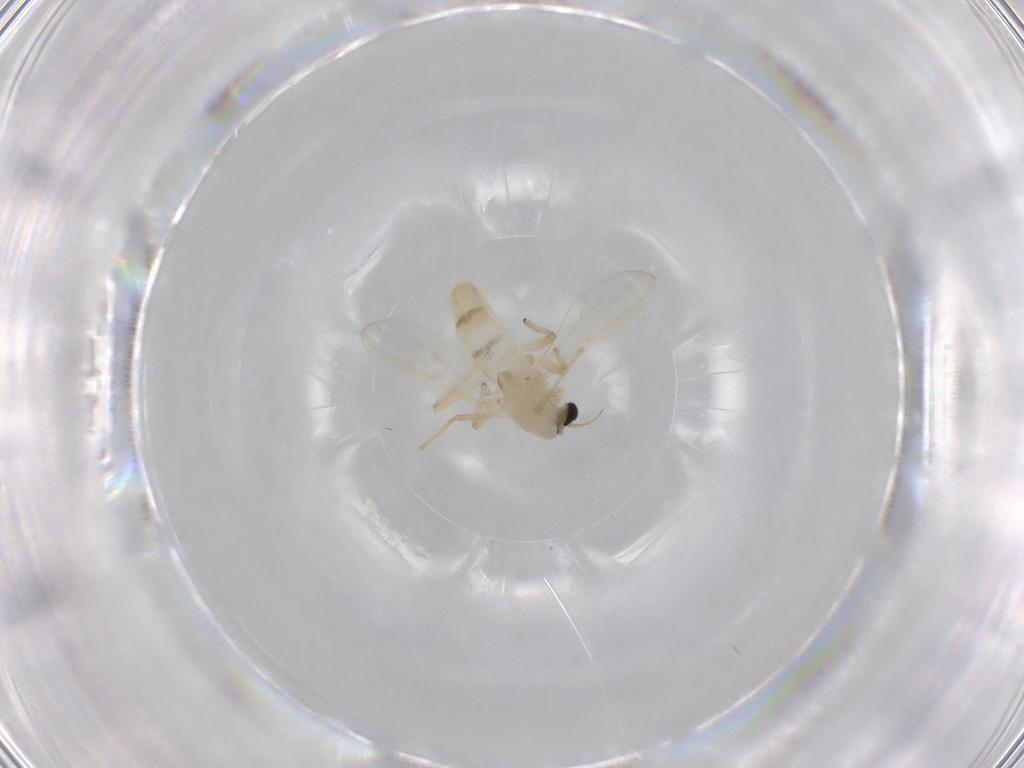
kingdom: Animalia
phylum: Arthropoda
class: Insecta
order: Diptera
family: Chironomidae
